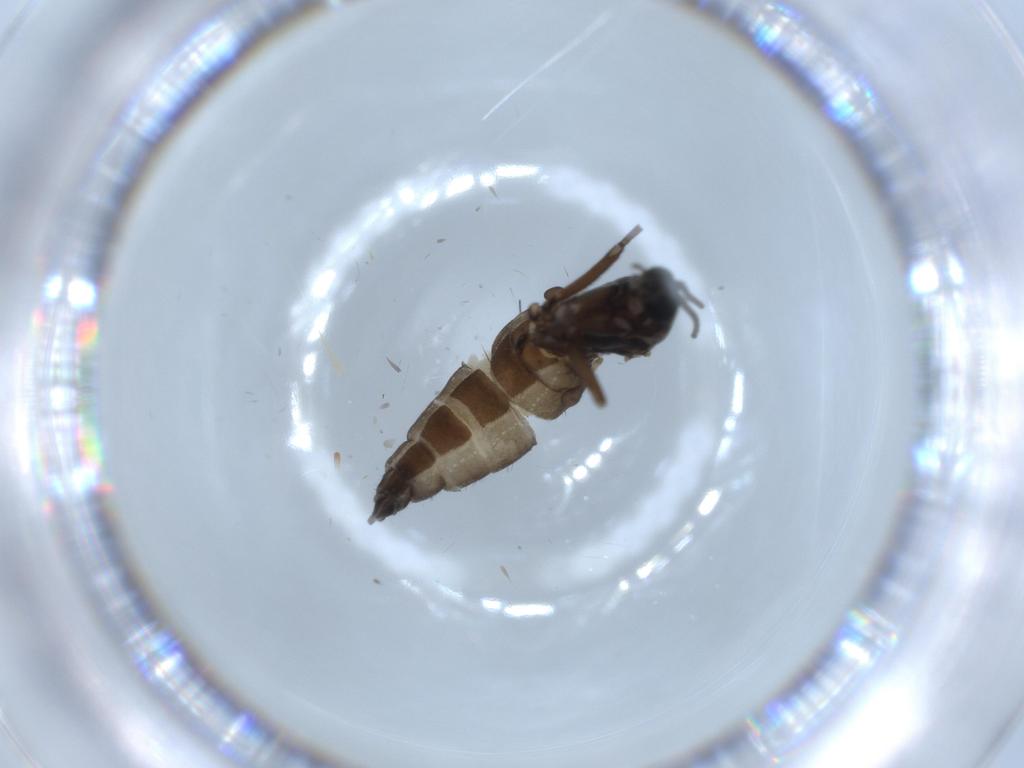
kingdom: Animalia
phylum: Arthropoda
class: Insecta
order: Diptera
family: Sciaridae
